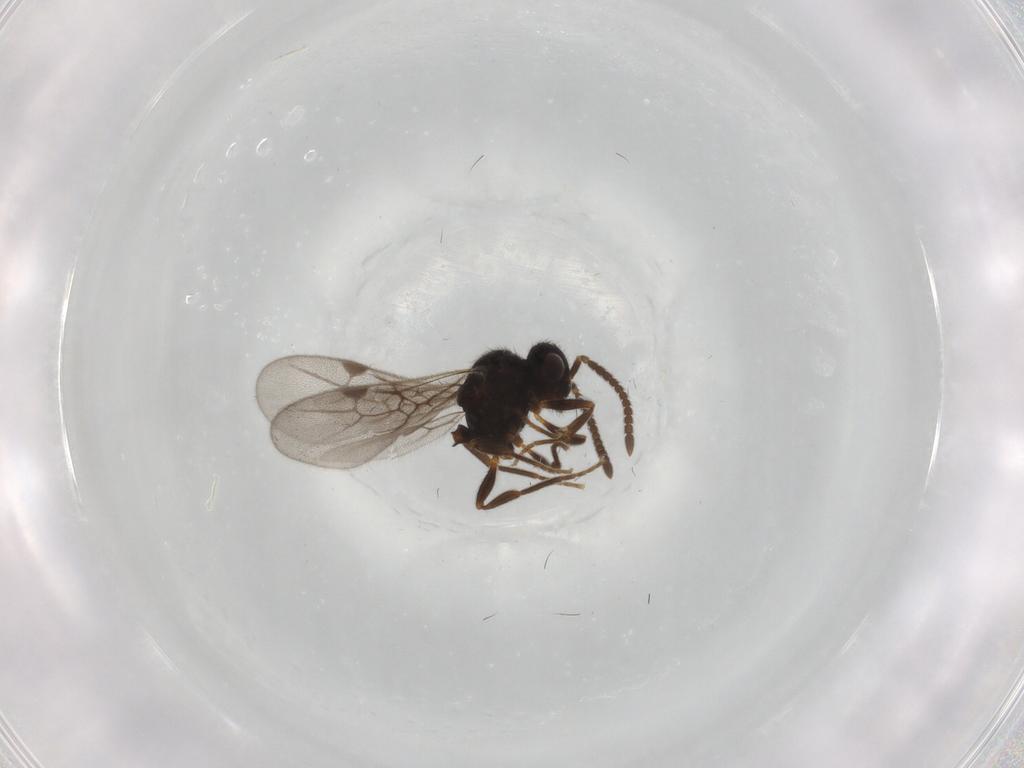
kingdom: Animalia
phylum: Arthropoda
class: Insecta
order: Hymenoptera
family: Formicidae
